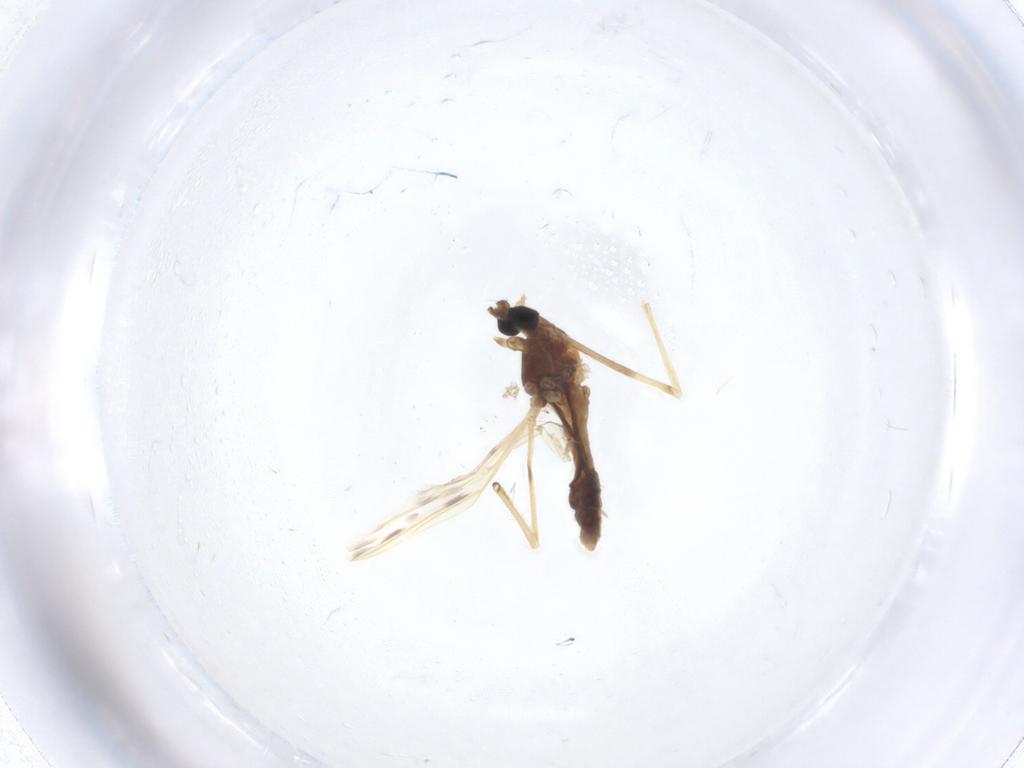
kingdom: Animalia
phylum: Arthropoda
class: Insecta
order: Diptera
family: Chironomidae
